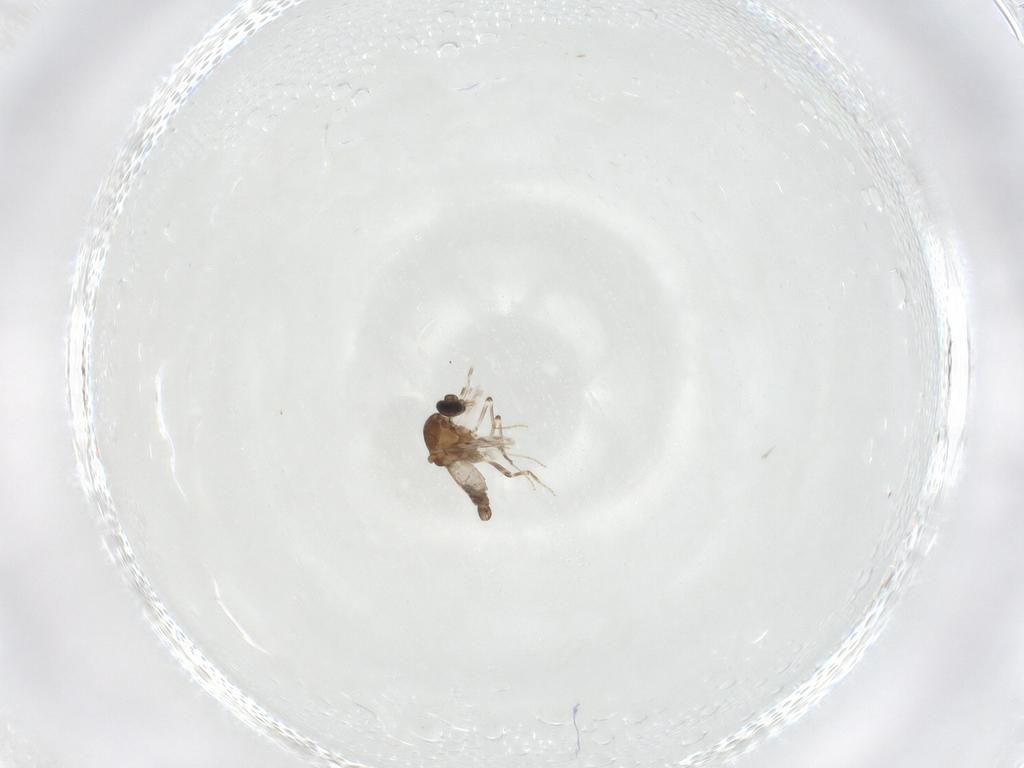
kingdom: Animalia
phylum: Arthropoda
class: Insecta
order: Diptera
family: Ceratopogonidae
